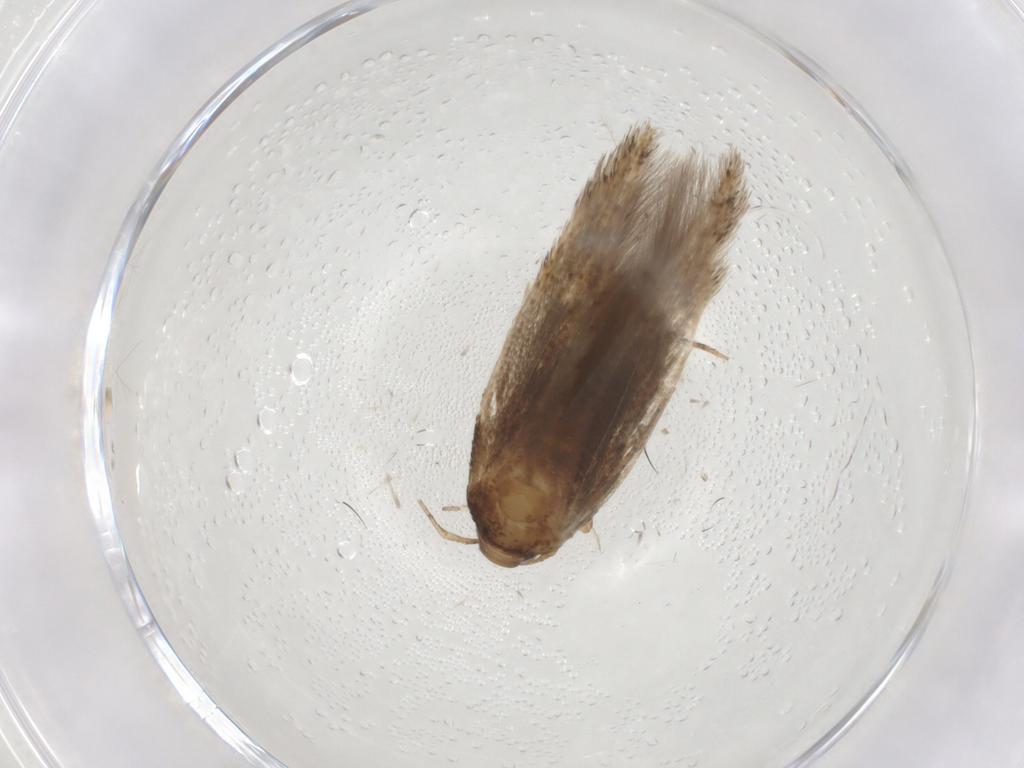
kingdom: Animalia
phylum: Arthropoda
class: Insecta
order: Lepidoptera
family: Cosmopterigidae
